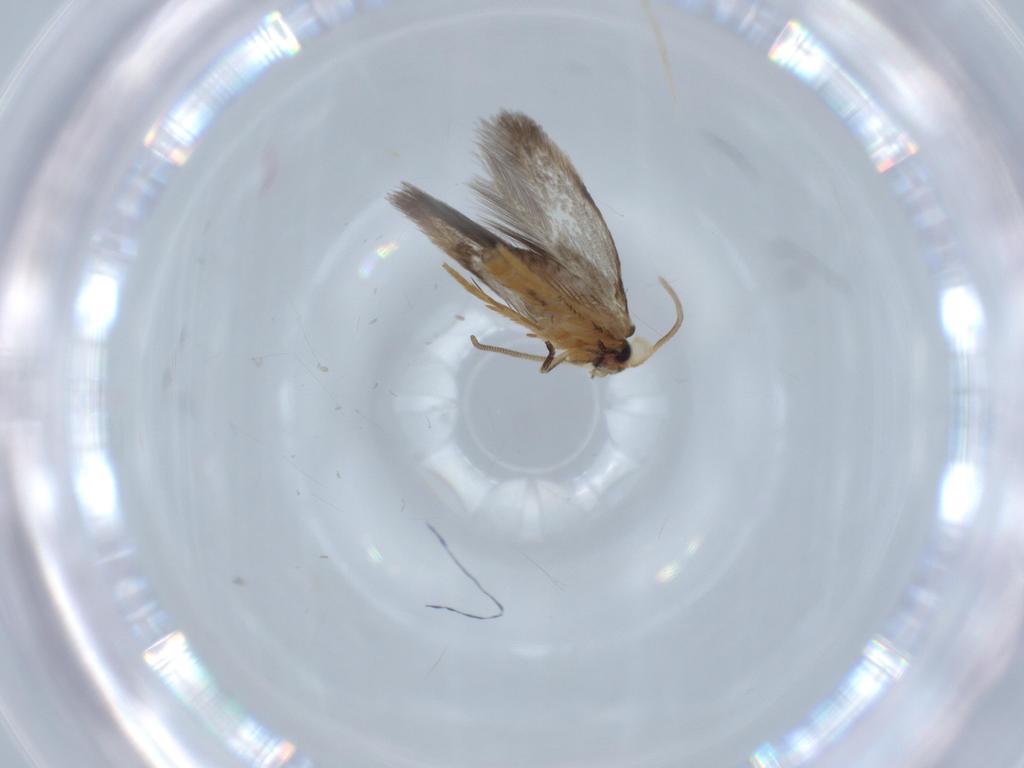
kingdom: Animalia
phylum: Arthropoda
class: Insecta
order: Lepidoptera
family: Nepticulidae
